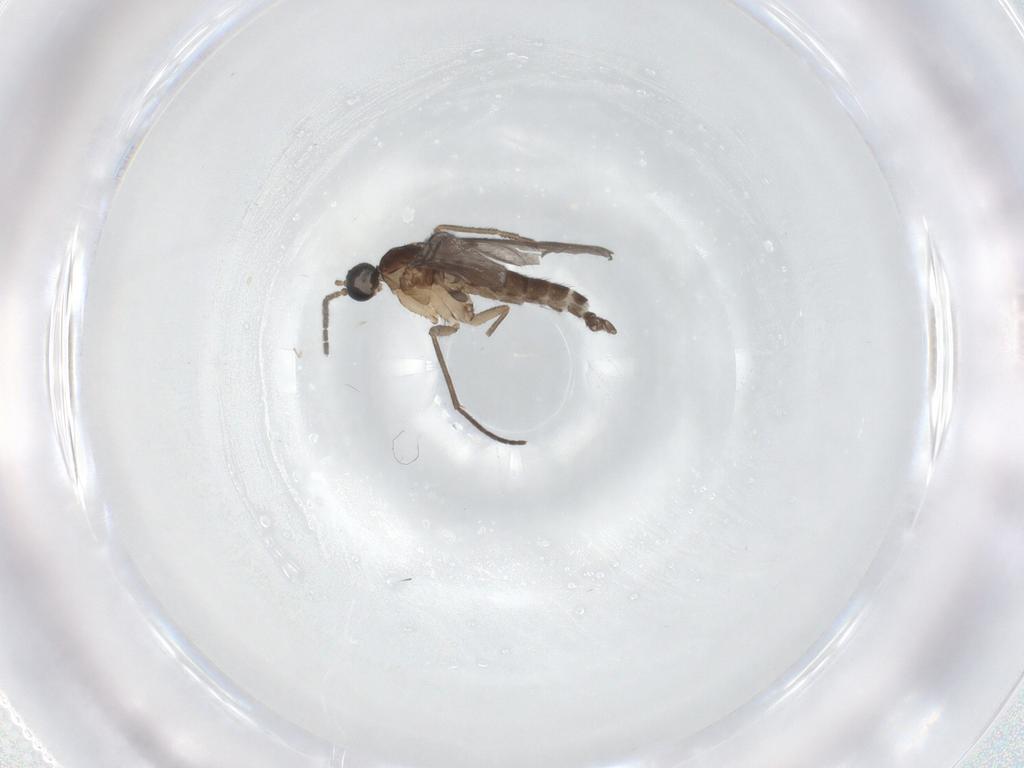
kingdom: Animalia
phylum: Arthropoda
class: Insecta
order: Diptera
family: Sciaridae
